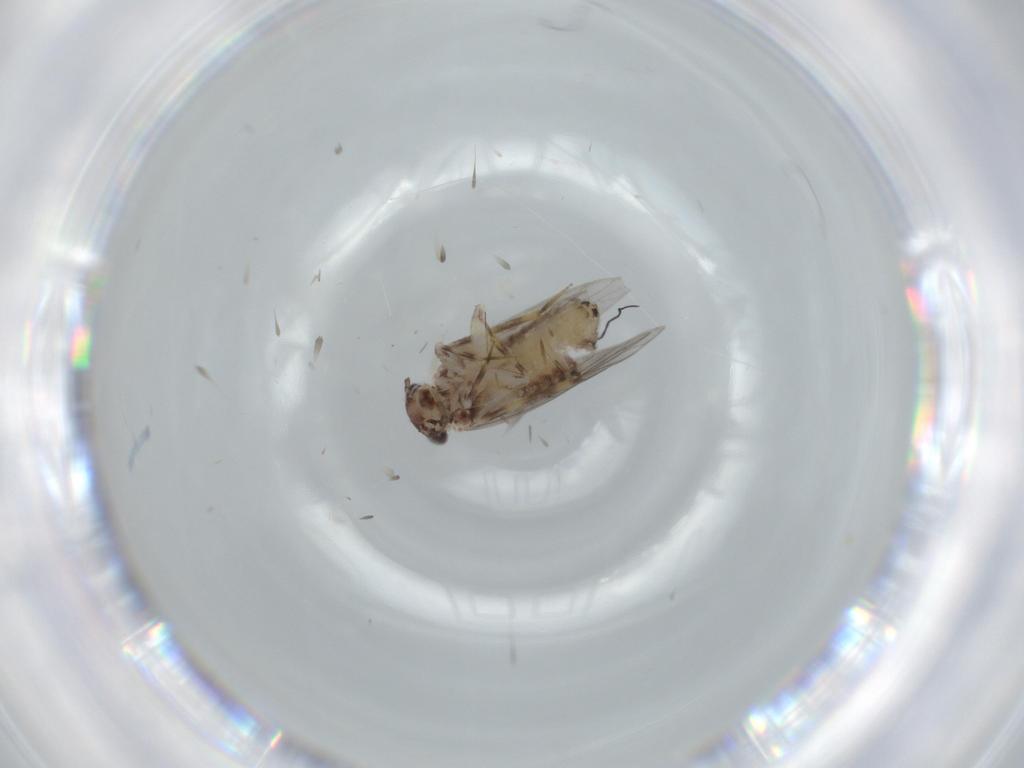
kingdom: Animalia
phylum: Arthropoda
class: Insecta
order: Psocodea
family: Lepidopsocidae
